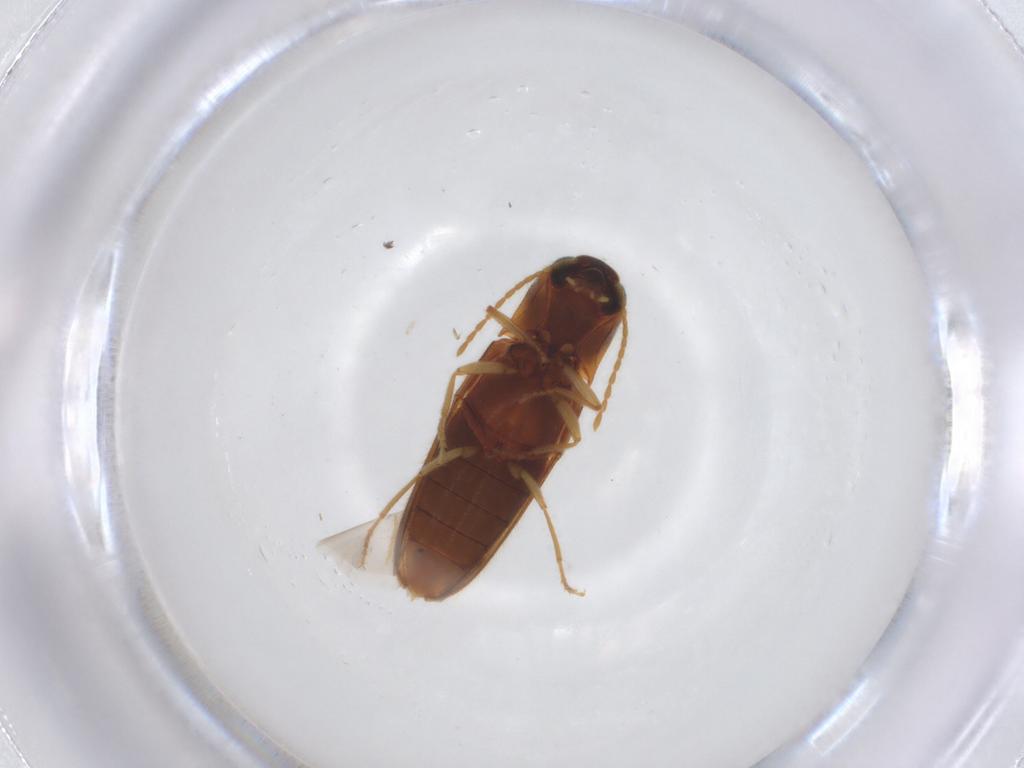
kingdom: Animalia
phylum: Arthropoda
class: Insecta
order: Coleoptera
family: Elateridae
